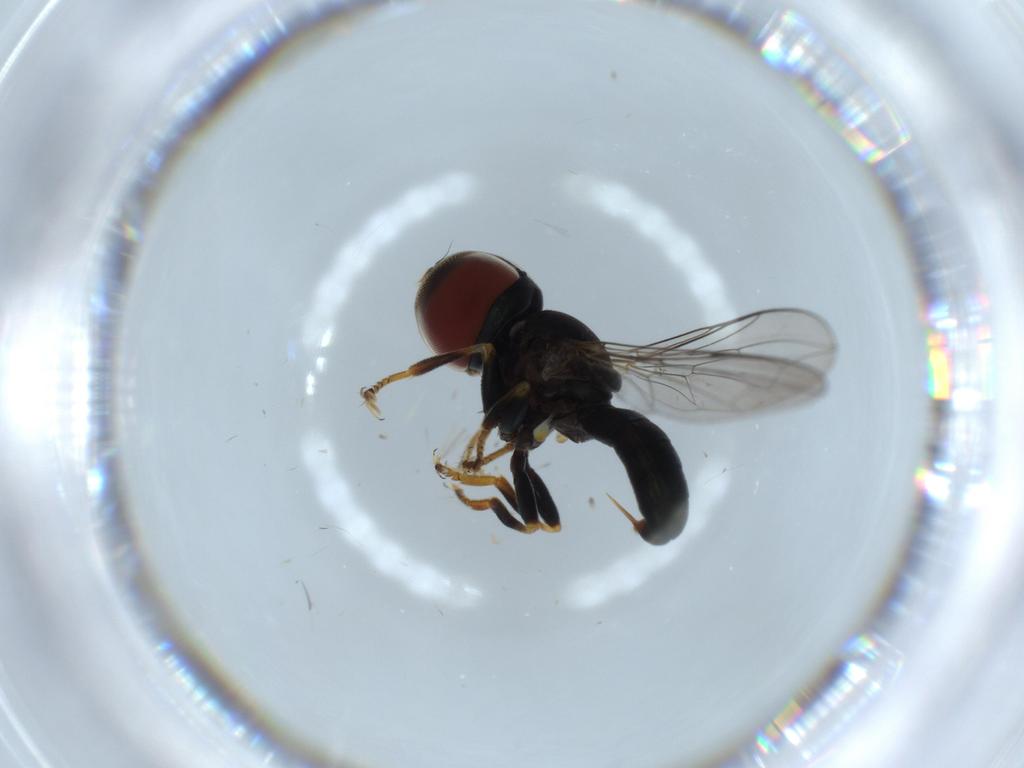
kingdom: Animalia
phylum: Arthropoda
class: Insecta
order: Diptera
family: Pipunculidae
